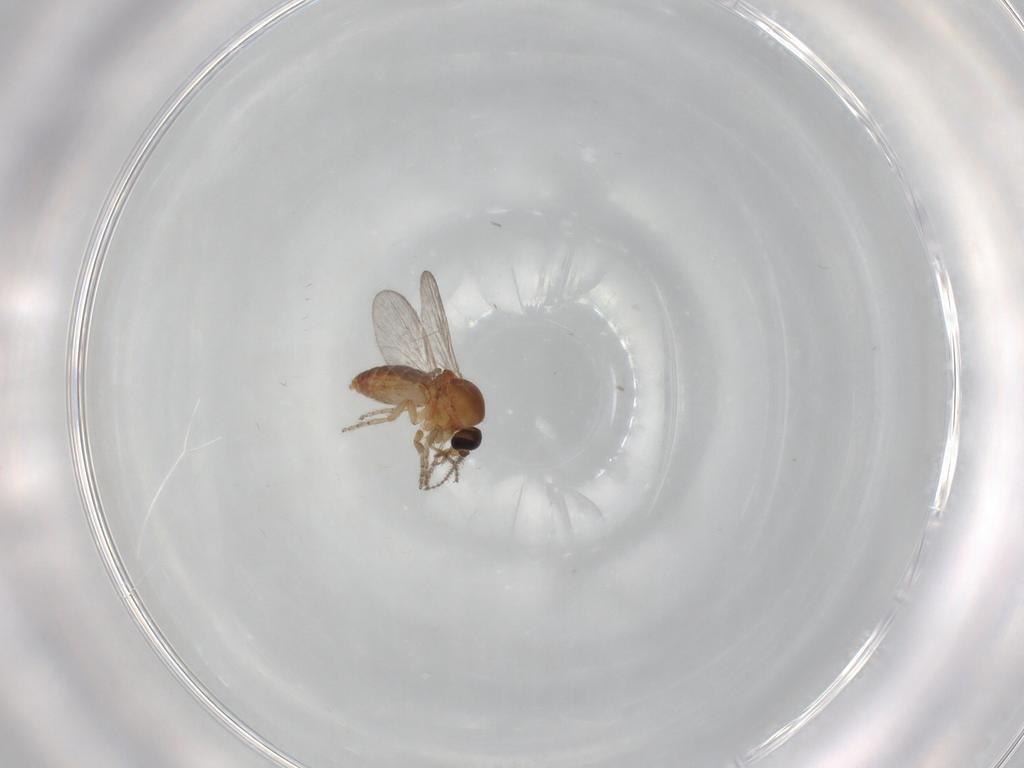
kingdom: Animalia
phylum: Arthropoda
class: Insecta
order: Diptera
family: Ceratopogonidae
